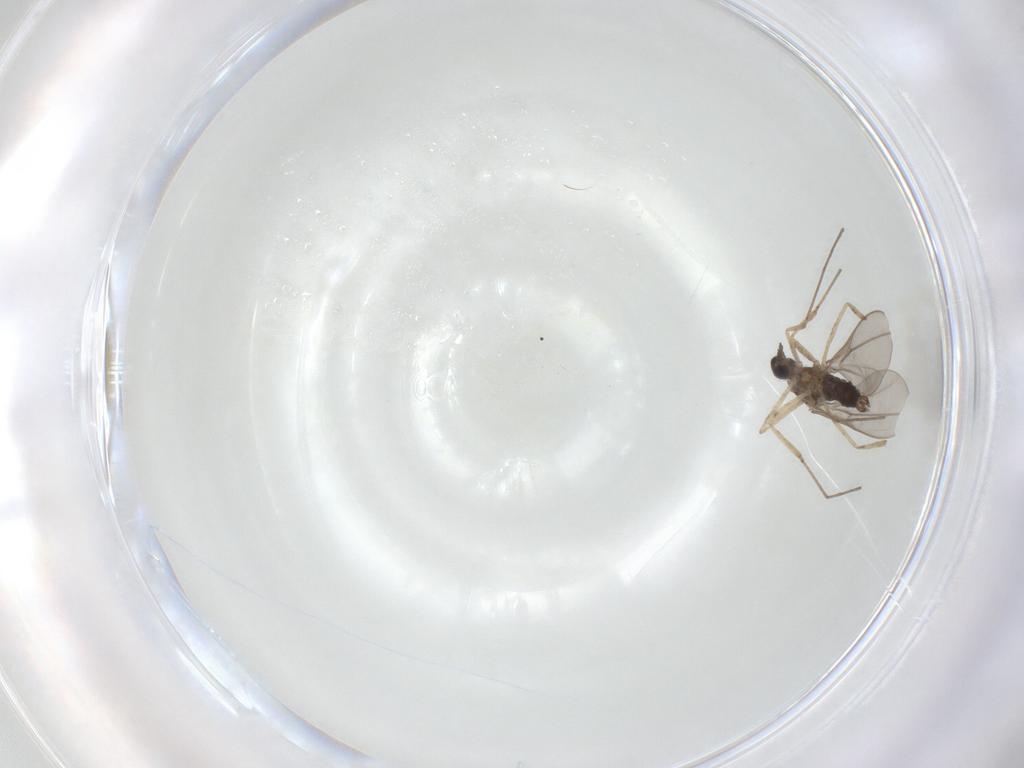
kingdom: Animalia
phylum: Arthropoda
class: Insecta
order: Diptera
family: Cecidomyiidae
